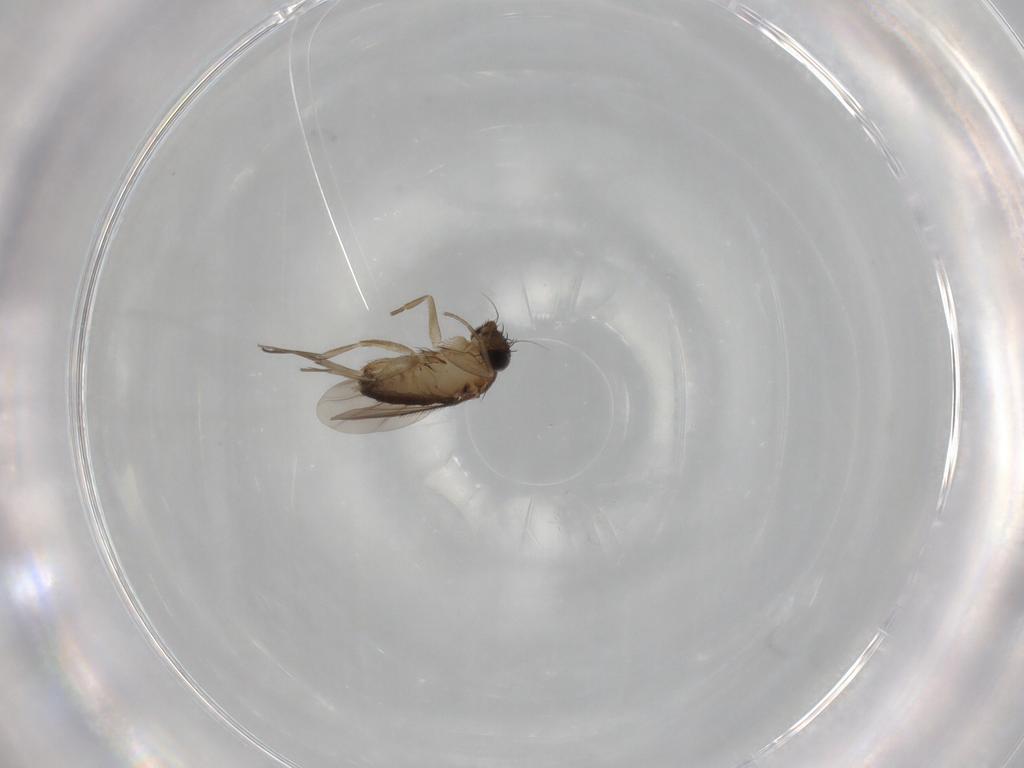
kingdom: Animalia
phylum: Arthropoda
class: Insecta
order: Diptera
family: Phoridae
